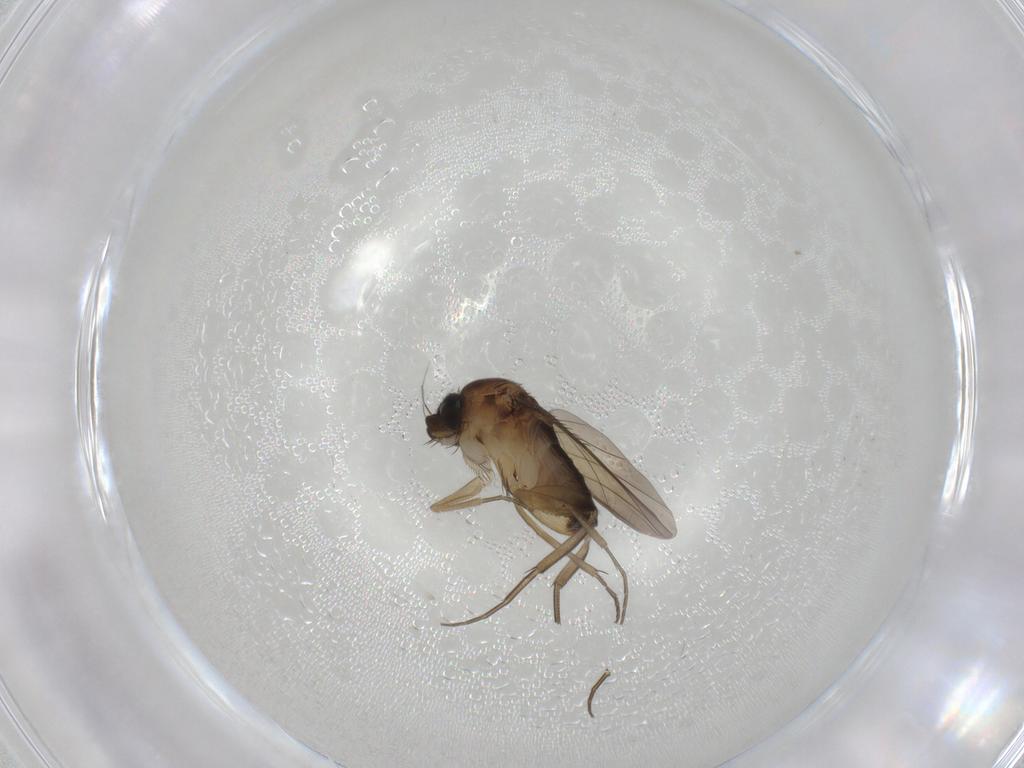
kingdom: Animalia
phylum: Arthropoda
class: Insecta
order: Diptera
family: Phoridae
